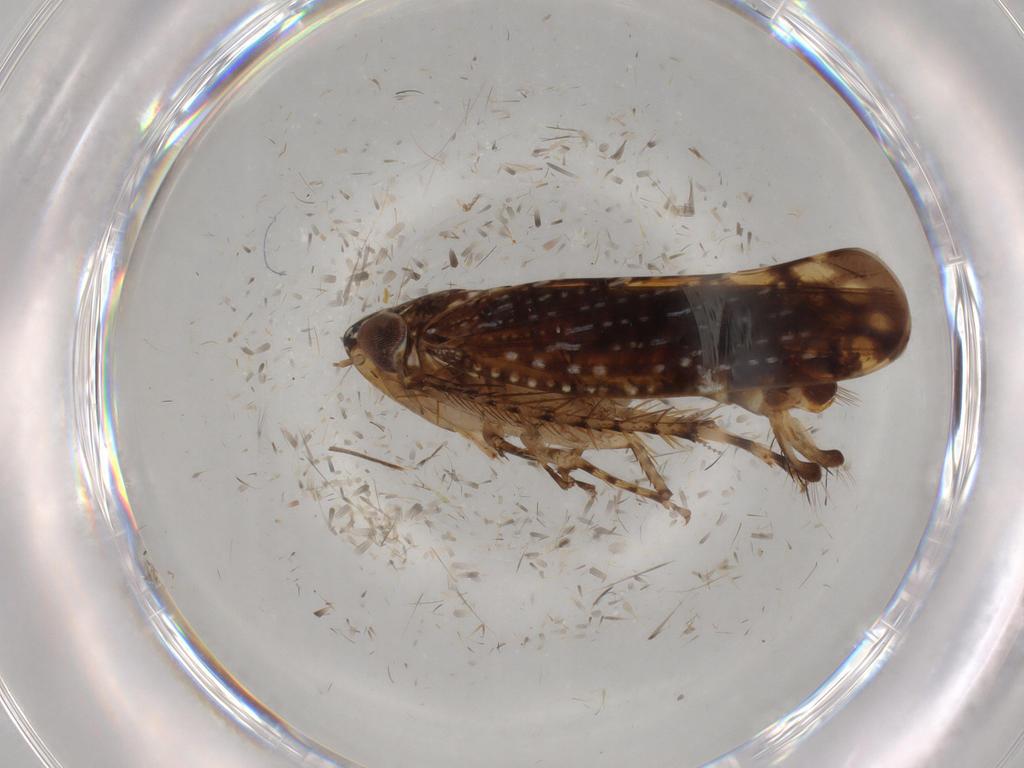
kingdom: Animalia
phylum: Arthropoda
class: Insecta
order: Hemiptera
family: Cicadellidae
